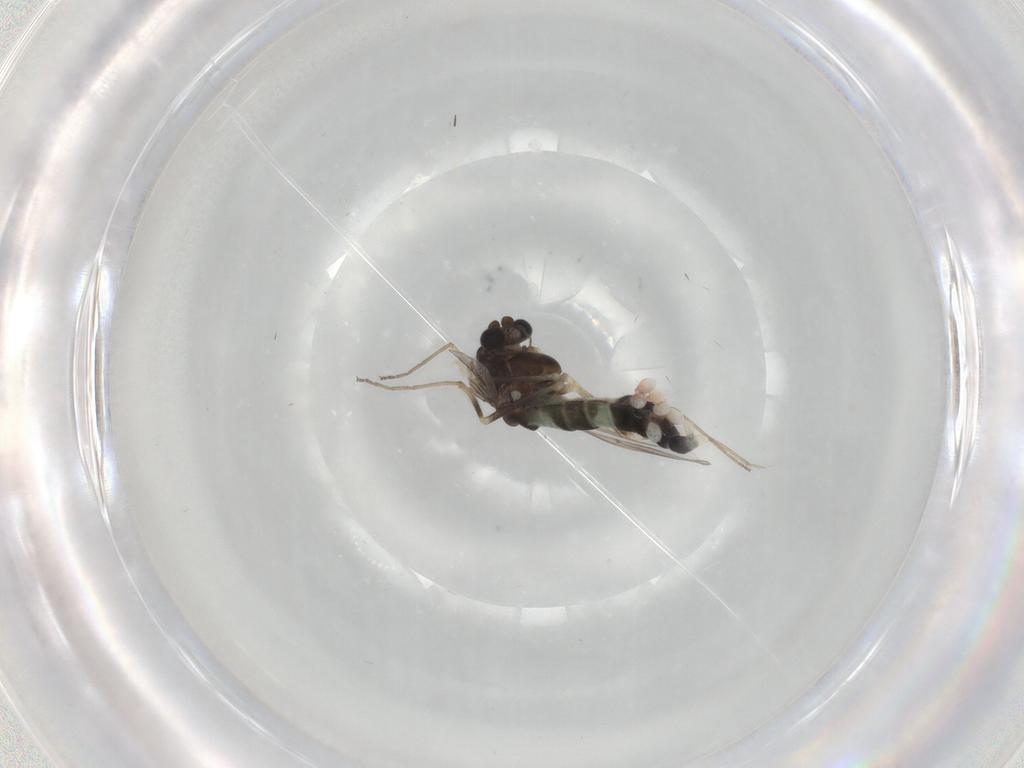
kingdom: Animalia
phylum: Arthropoda
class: Insecta
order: Diptera
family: Chironomidae
